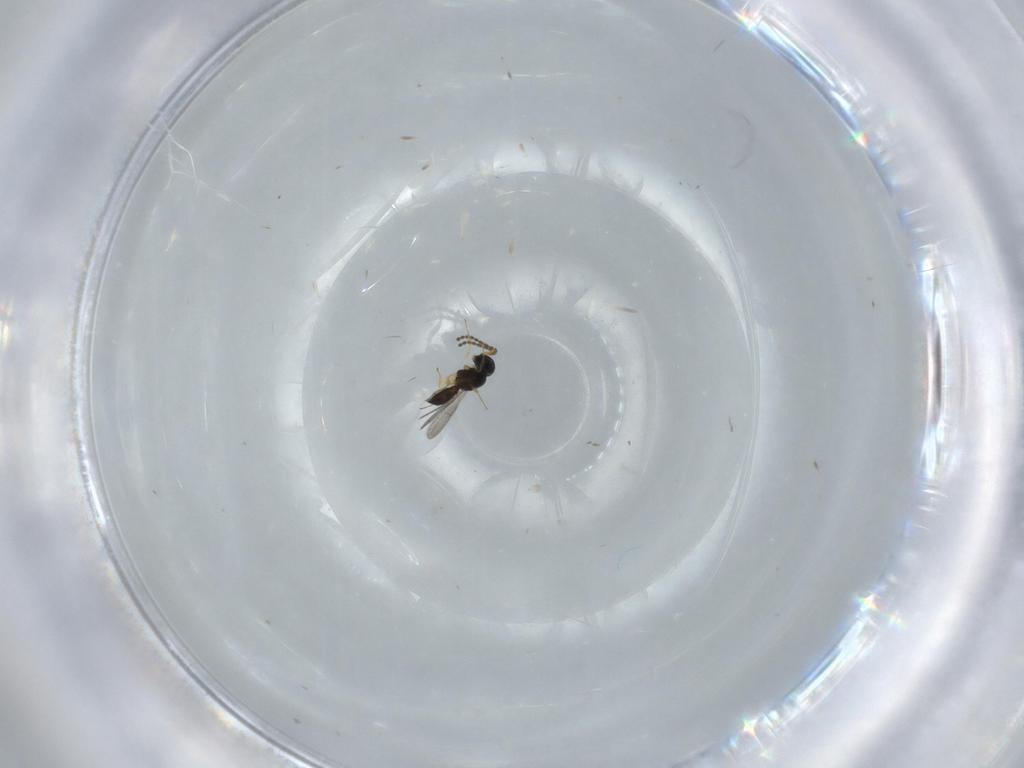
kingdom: Animalia
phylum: Arthropoda
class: Insecta
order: Hymenoptera
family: Scelionidae
